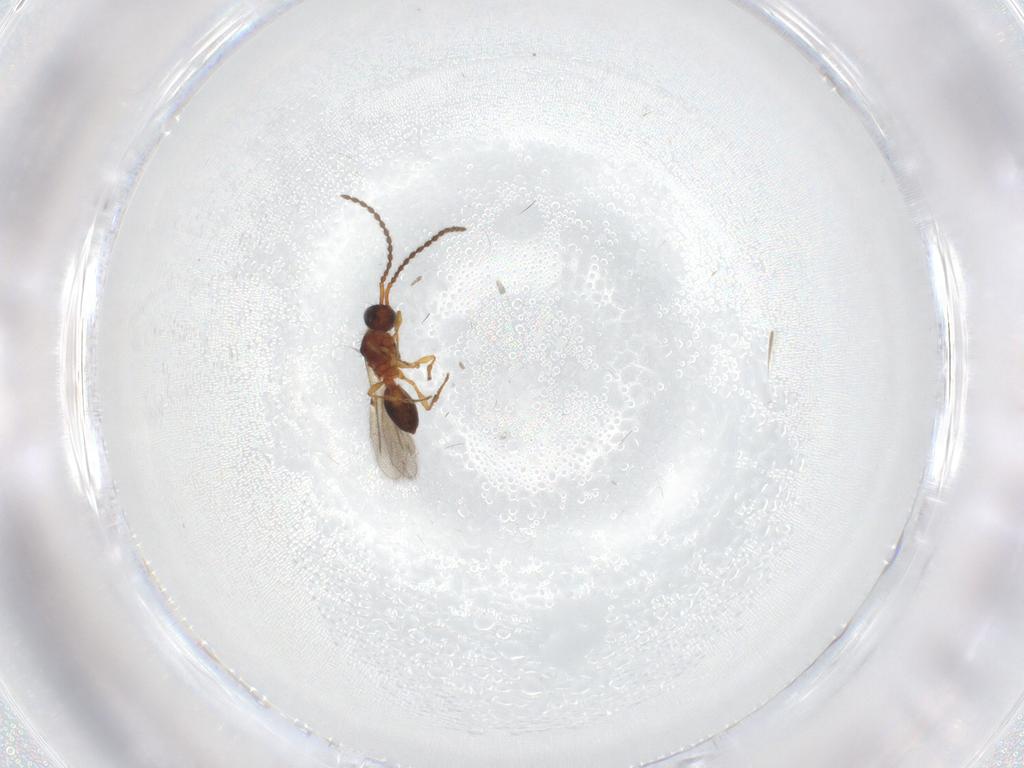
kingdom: Animalia
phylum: Arthropoda
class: Insecta
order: Hymenoptera
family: Diapriidae
